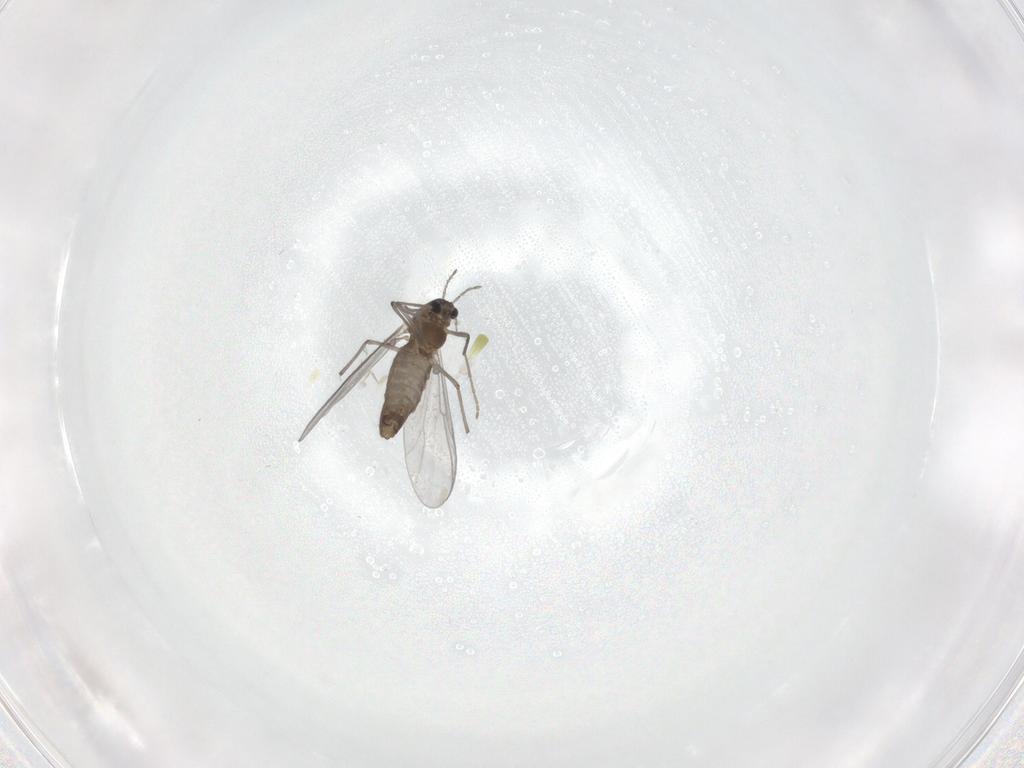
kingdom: Animalia
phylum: Arthropoda
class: Insecta
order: Diptera
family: Chironomidae
